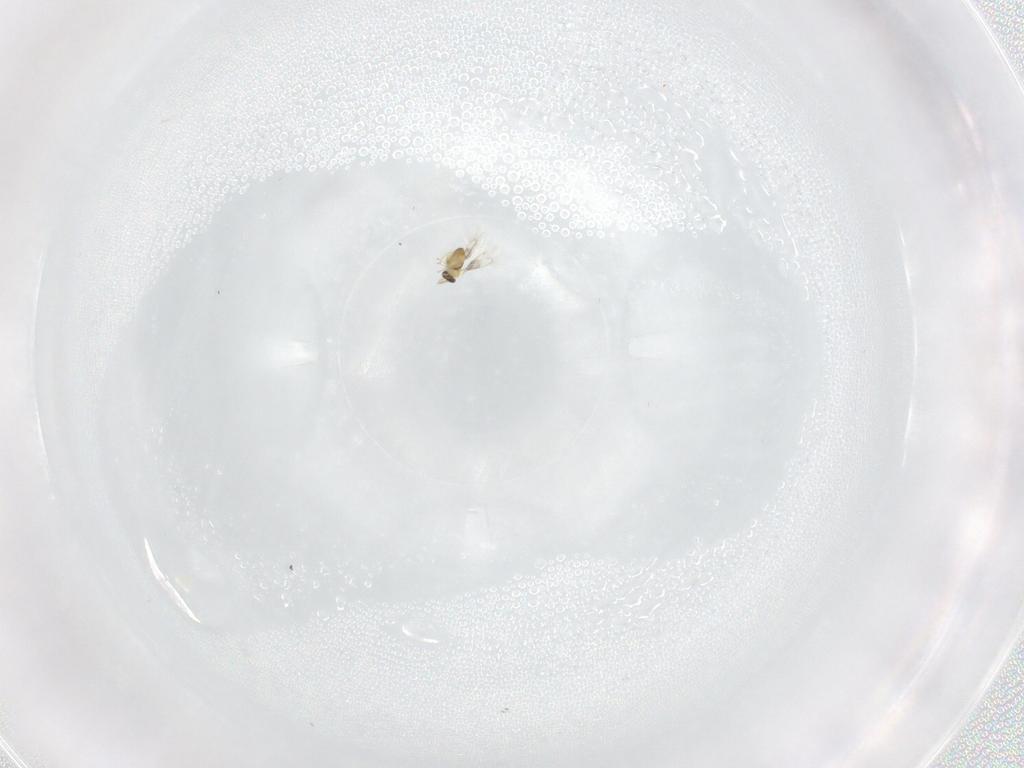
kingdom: Animalia
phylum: Arthropoda
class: Insecta
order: Hymenoptera
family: Trichogrammatidae
